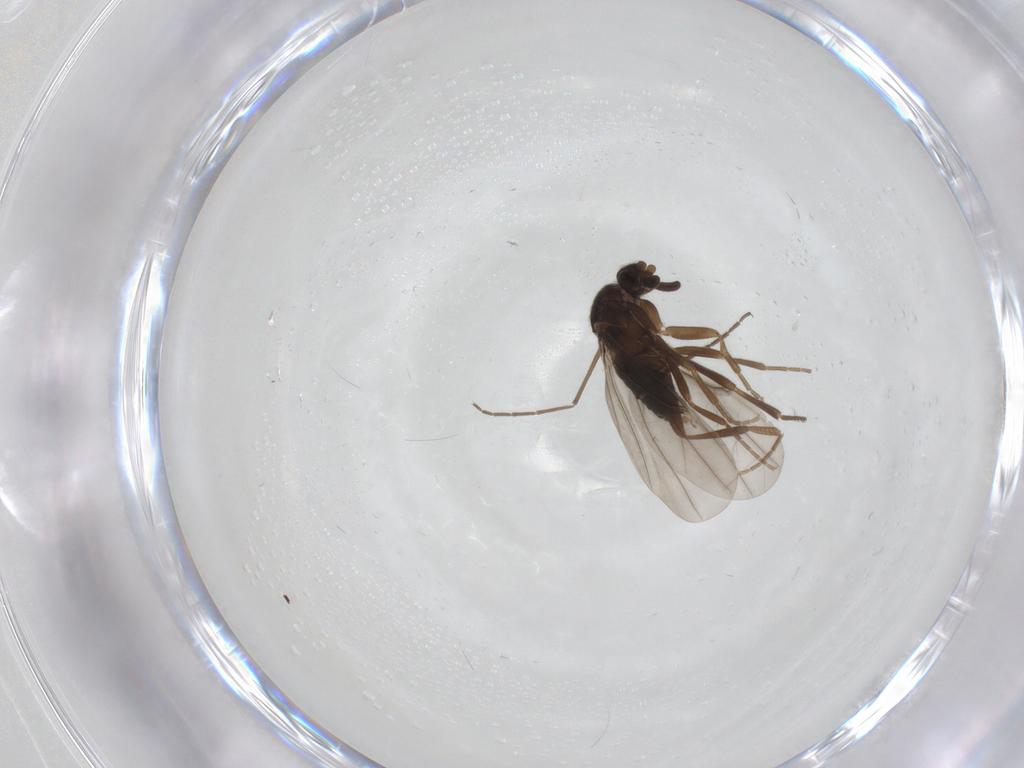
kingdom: Animalia
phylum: Arthropoda
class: Insecta
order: Diptera
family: Phoridae
